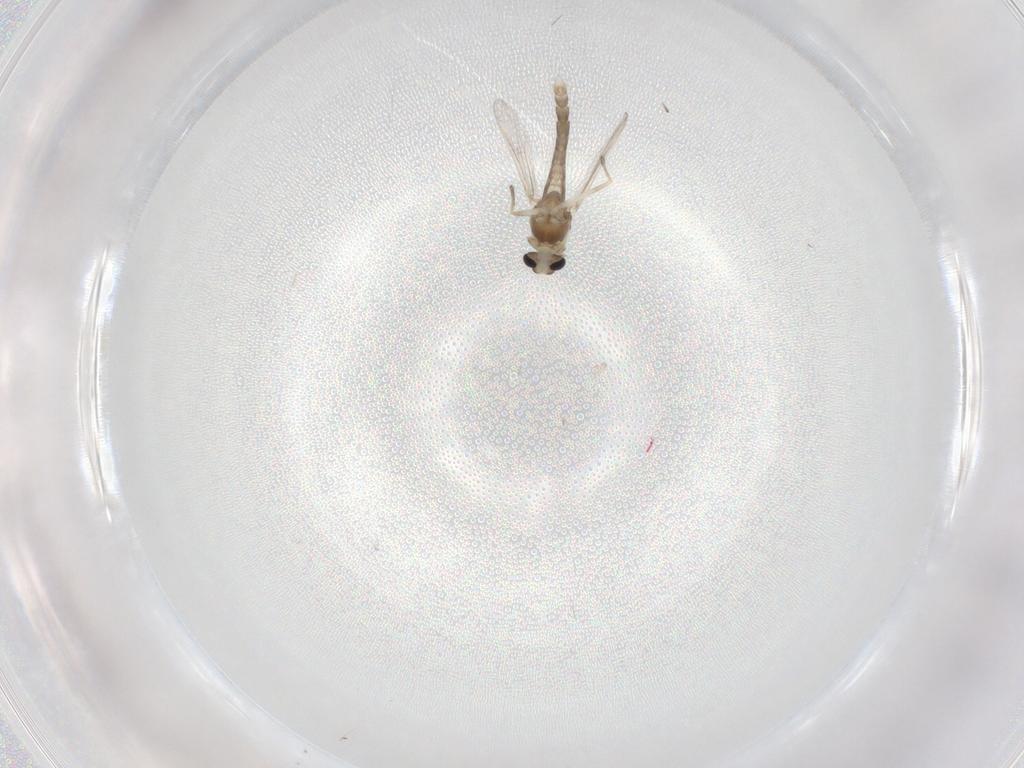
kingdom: Animalia
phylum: Arthropoda
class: Insecta
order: Diptera
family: Chironomidae
